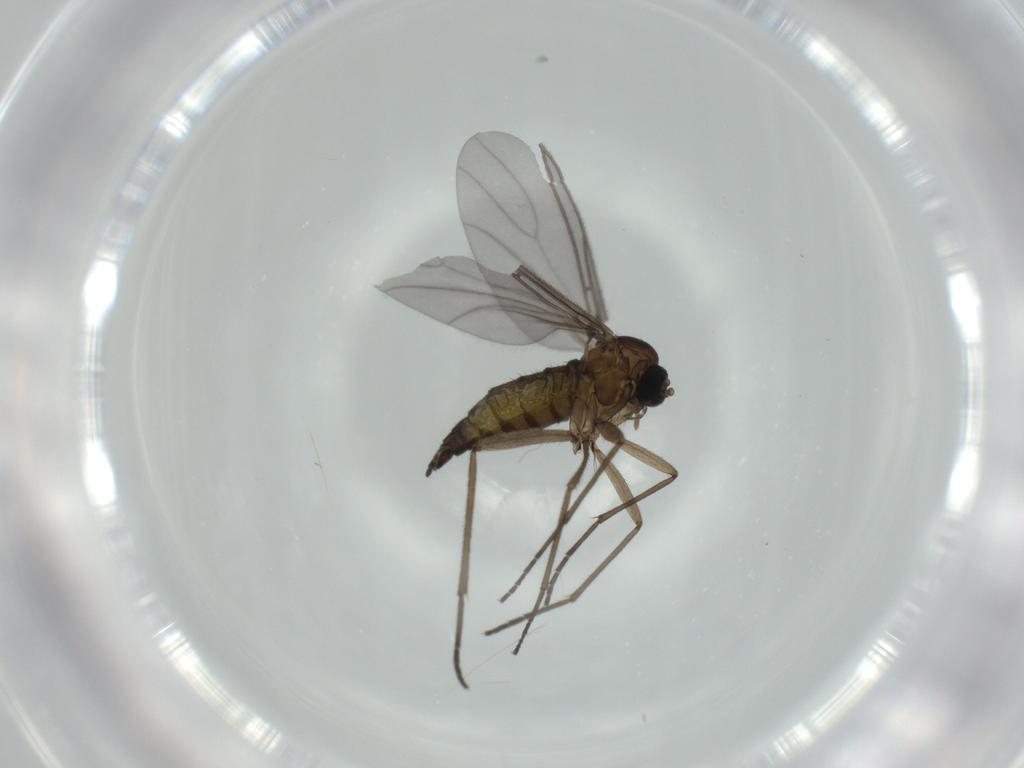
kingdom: Animalia
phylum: Arthropoda
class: Insecta
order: Diptera
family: Sciaridae
